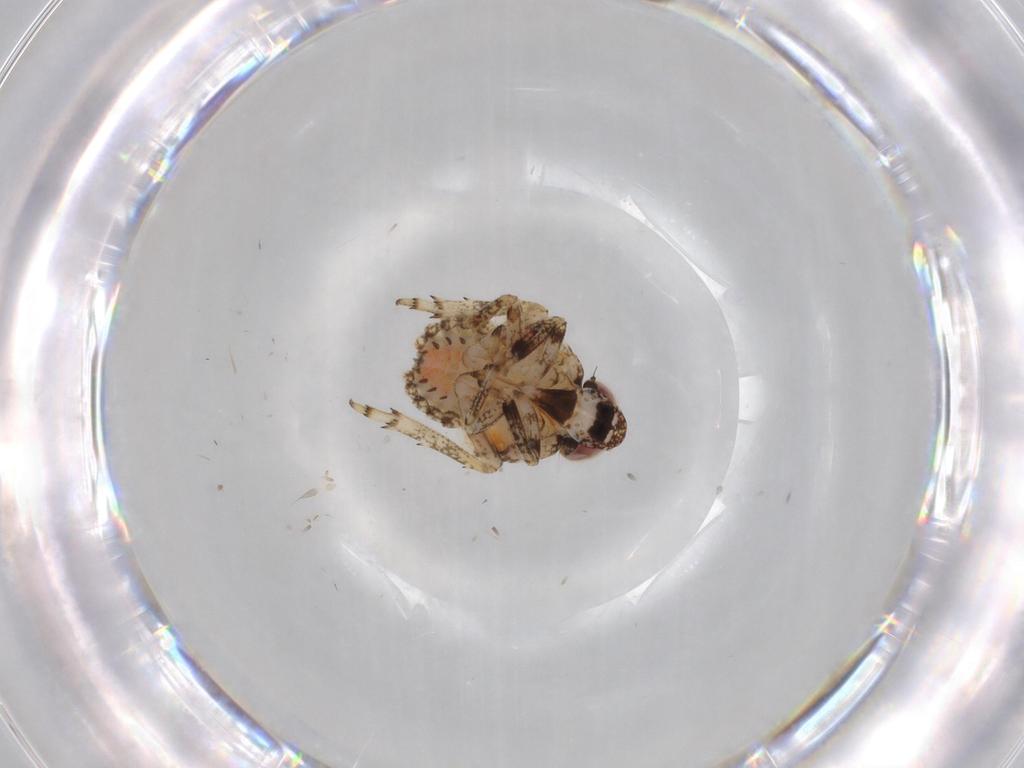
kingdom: Animalia
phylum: Arthropoda
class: Insecta
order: Hemiptera
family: Issidae
